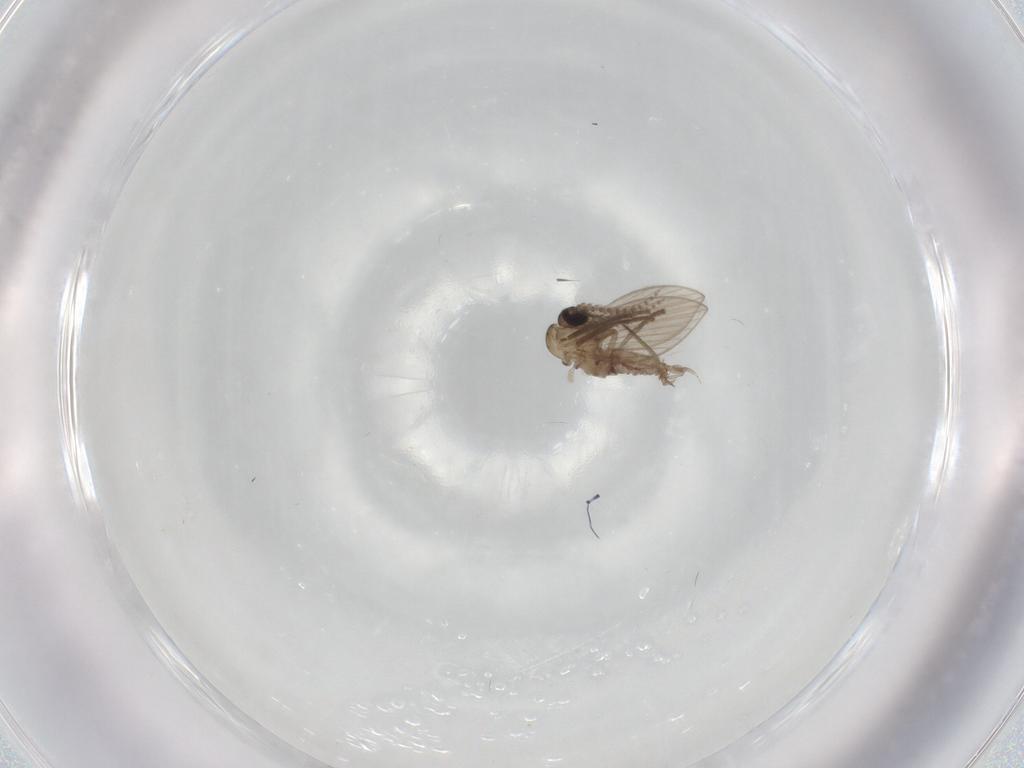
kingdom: Animalia
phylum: Arthropoda
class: Insecta
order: Diptera
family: Psychodidae
